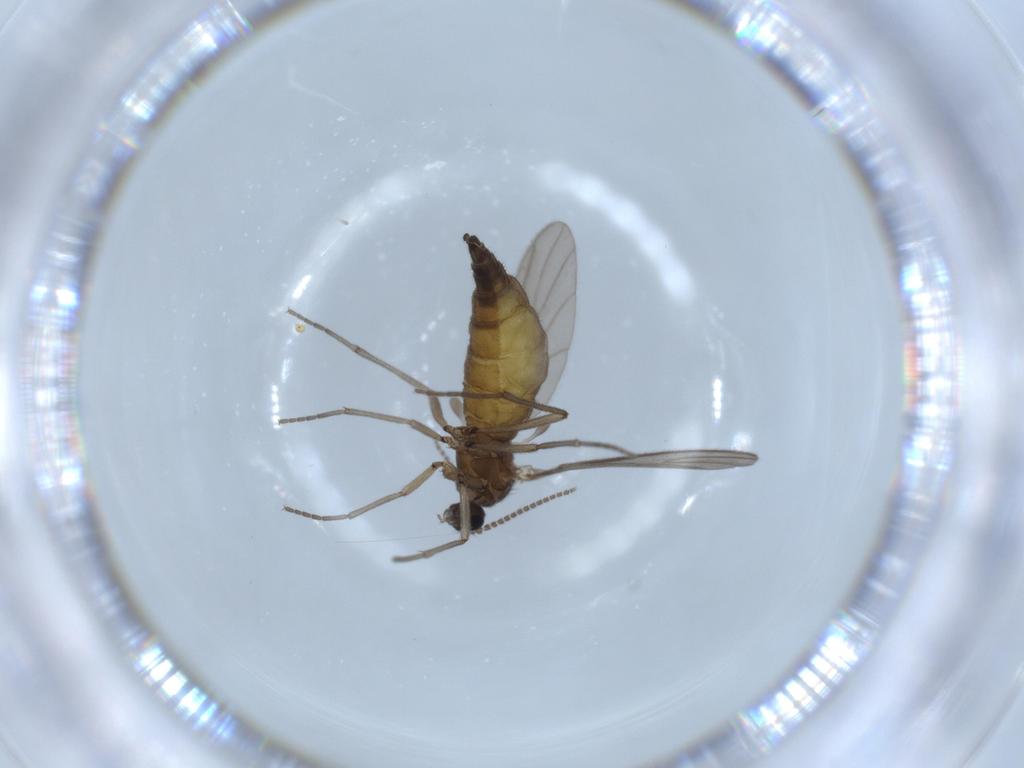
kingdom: Animalia
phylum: Arthropoda
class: Insecta
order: Diptera
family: Sciaridae
